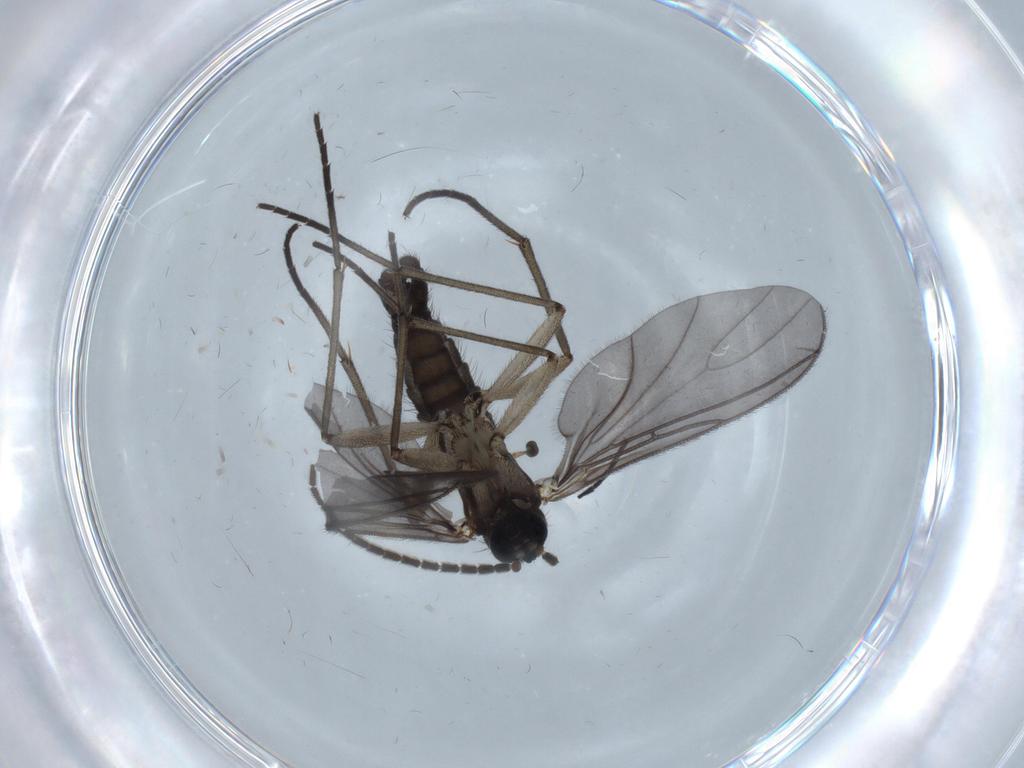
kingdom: Animalia
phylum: Arthropoda
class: Insecta
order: Diptera
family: Sciaridae
